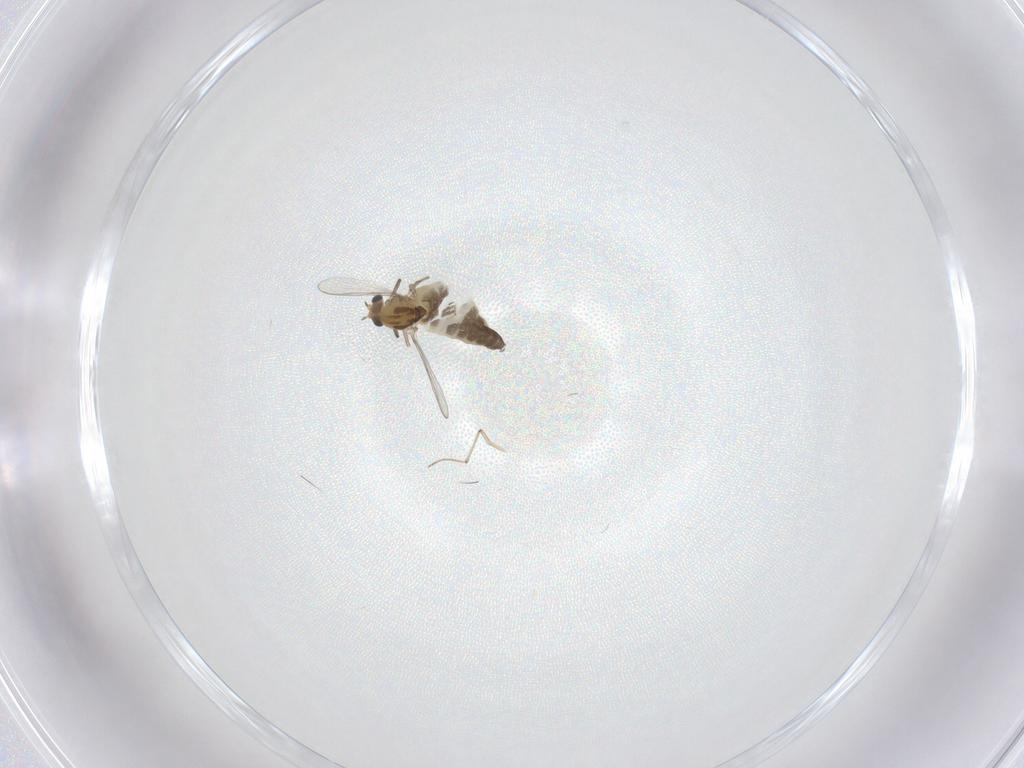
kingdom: Animalia
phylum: Arthropoda
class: Insecta
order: Diptera
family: Chironomidae
